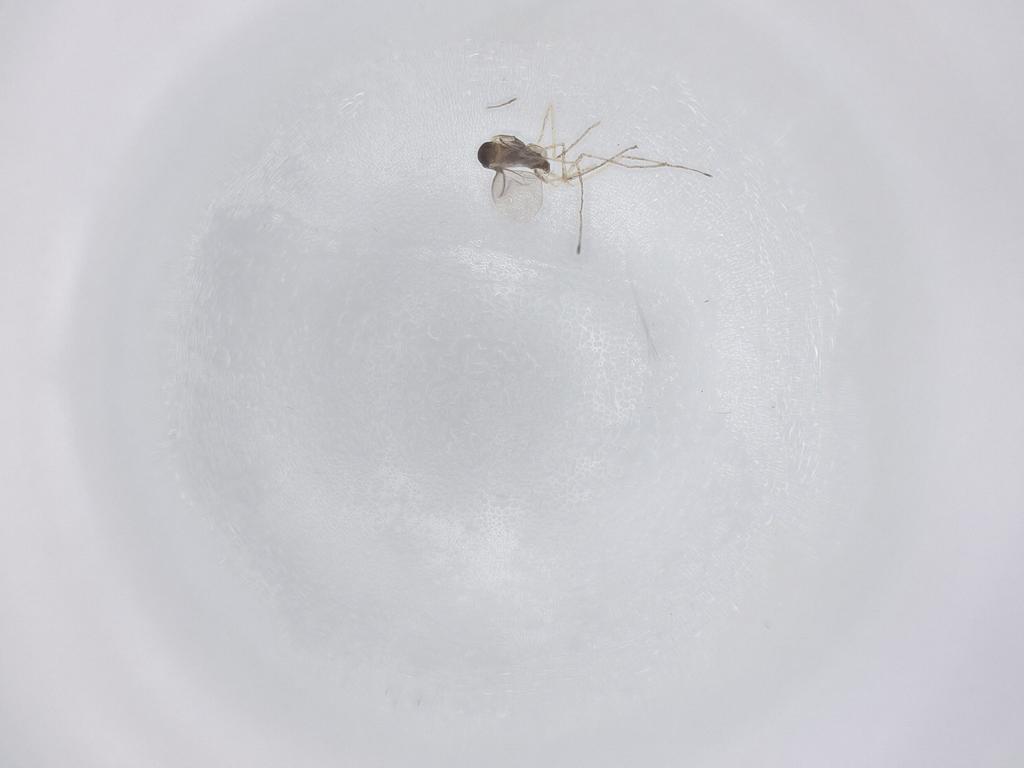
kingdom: Animalia
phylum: Arthropoda
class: Insecta
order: Diptera
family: Cecidomyiidae
